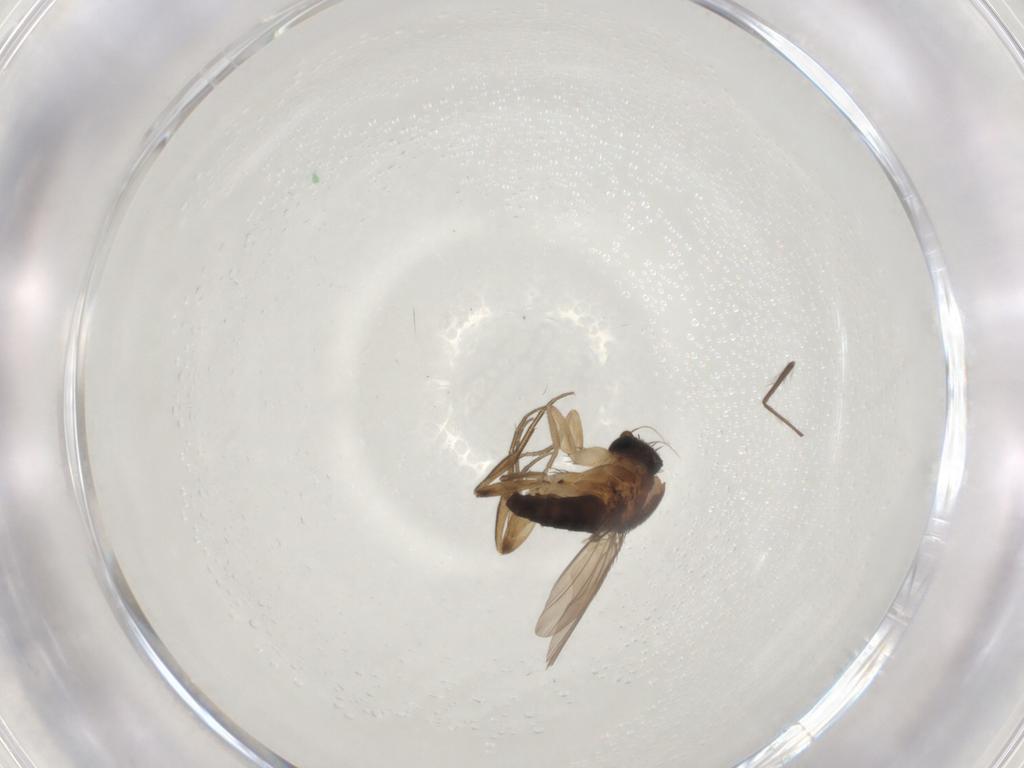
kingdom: Animalia
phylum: Arthropoda
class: Insecta
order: Diptera
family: Phoridae
